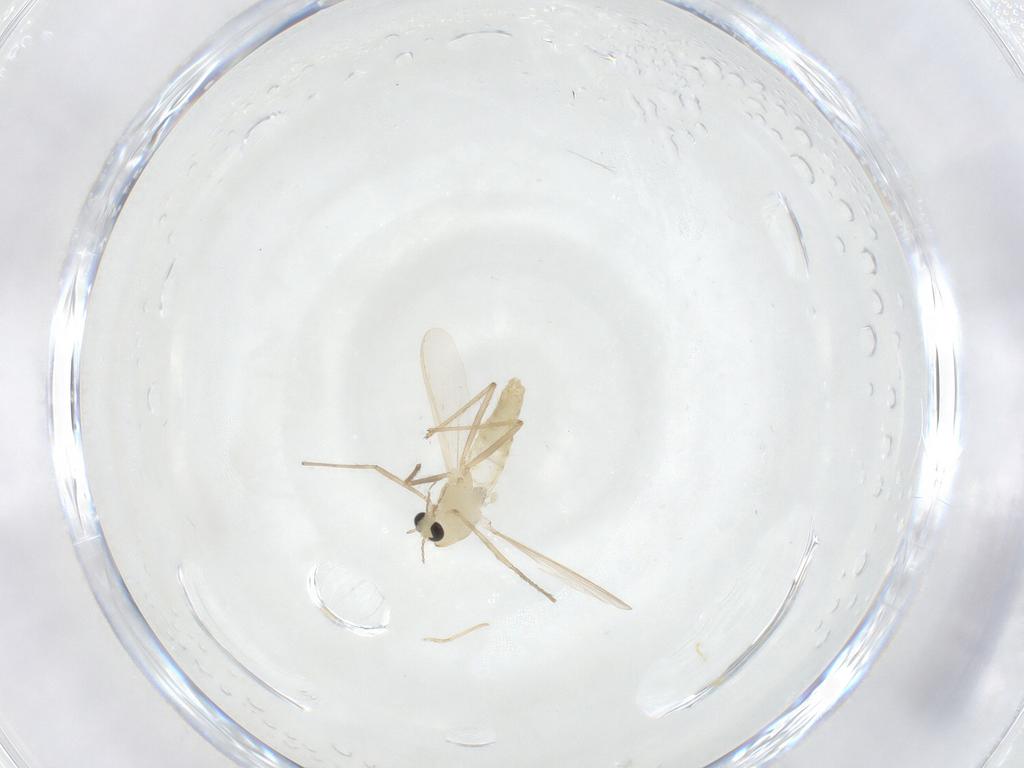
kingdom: Animalia
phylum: Arthropoda
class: Insecta
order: Diptera
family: Chironomidae
